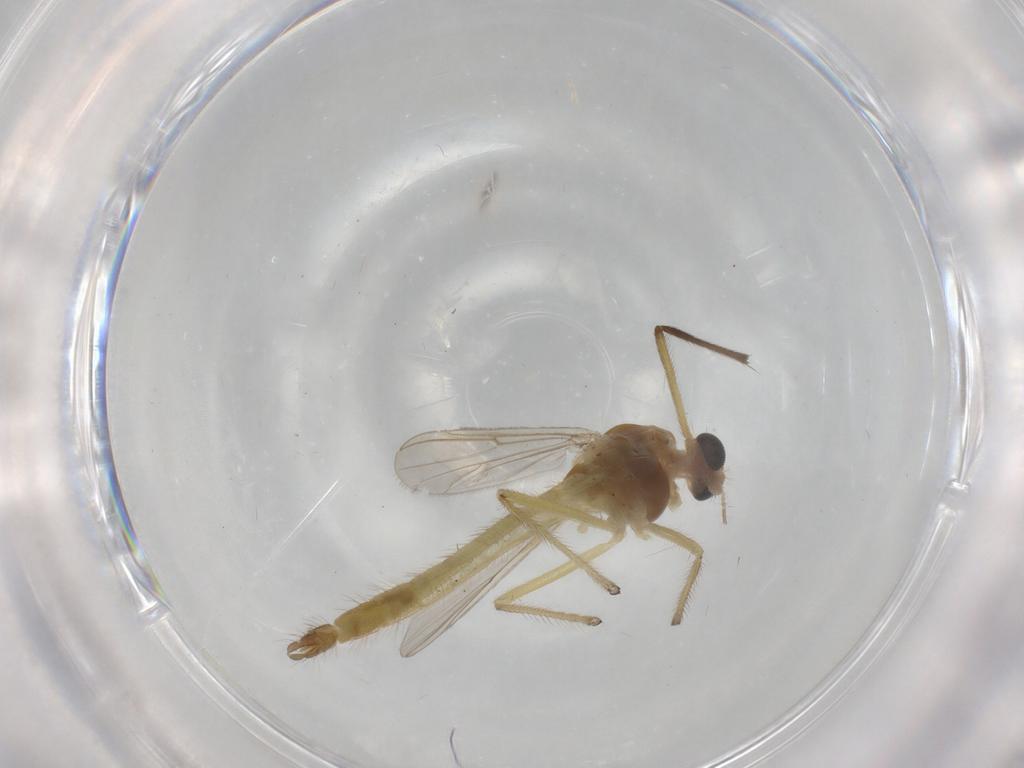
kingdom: Animalia
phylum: Arthropoda
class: Insecta
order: Diptera
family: Chironomidae
